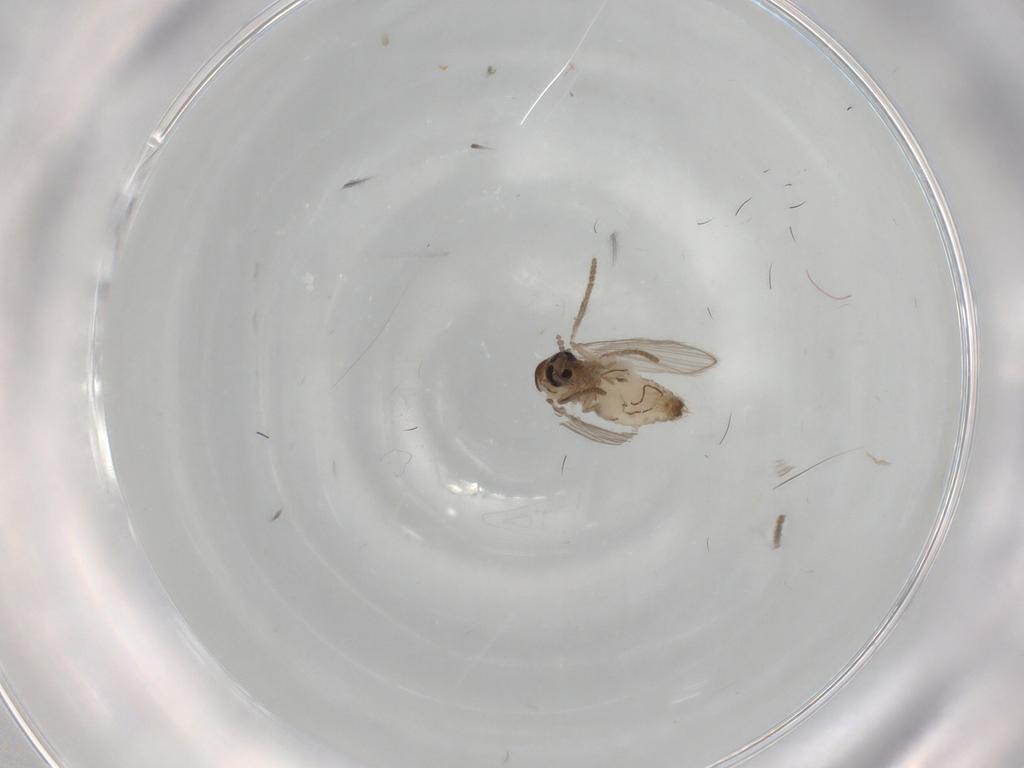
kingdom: Animalia
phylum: Arthropoda
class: Insecta
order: Diptera
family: Psychodidae
